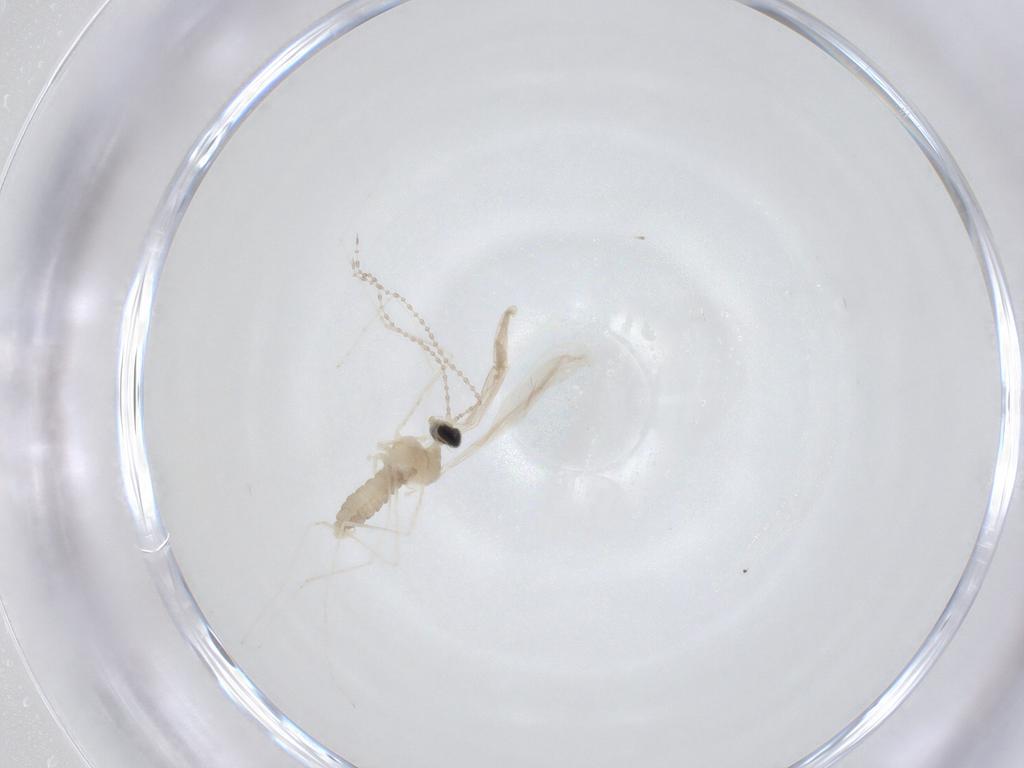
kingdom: Animalia
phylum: Arthropoda
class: Insecta
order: Diptera
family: Cecidomyiidae
